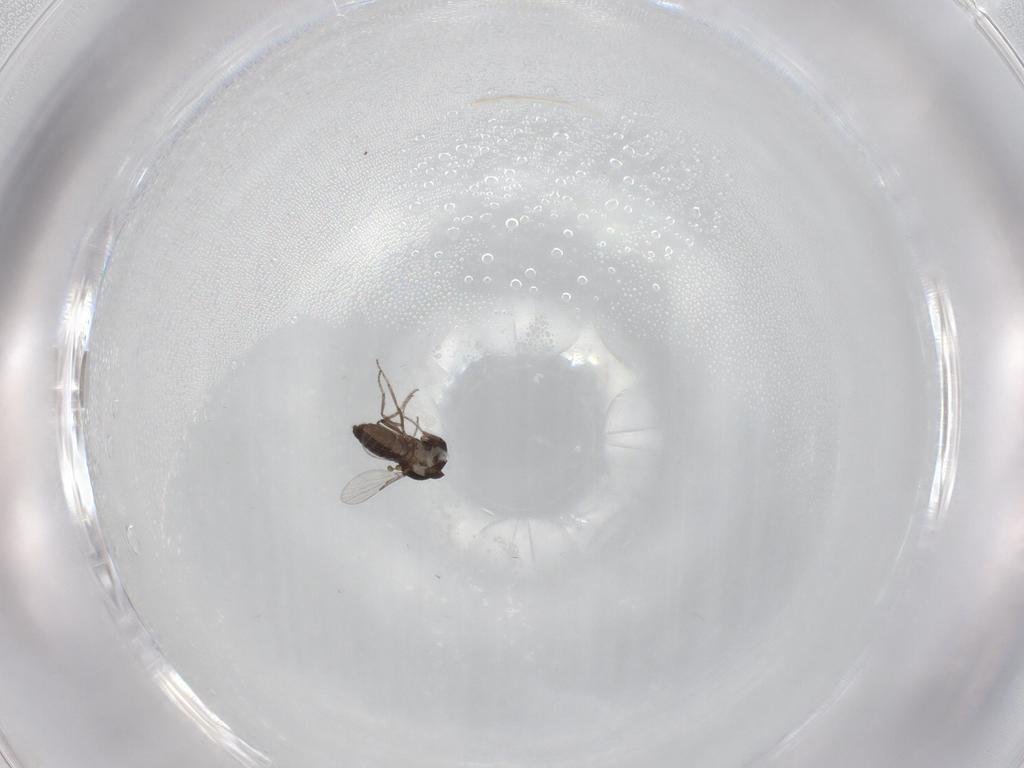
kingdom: Animalia
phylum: Arthropoda
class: Insecta
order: Diptera
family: Ceratopogonidae
